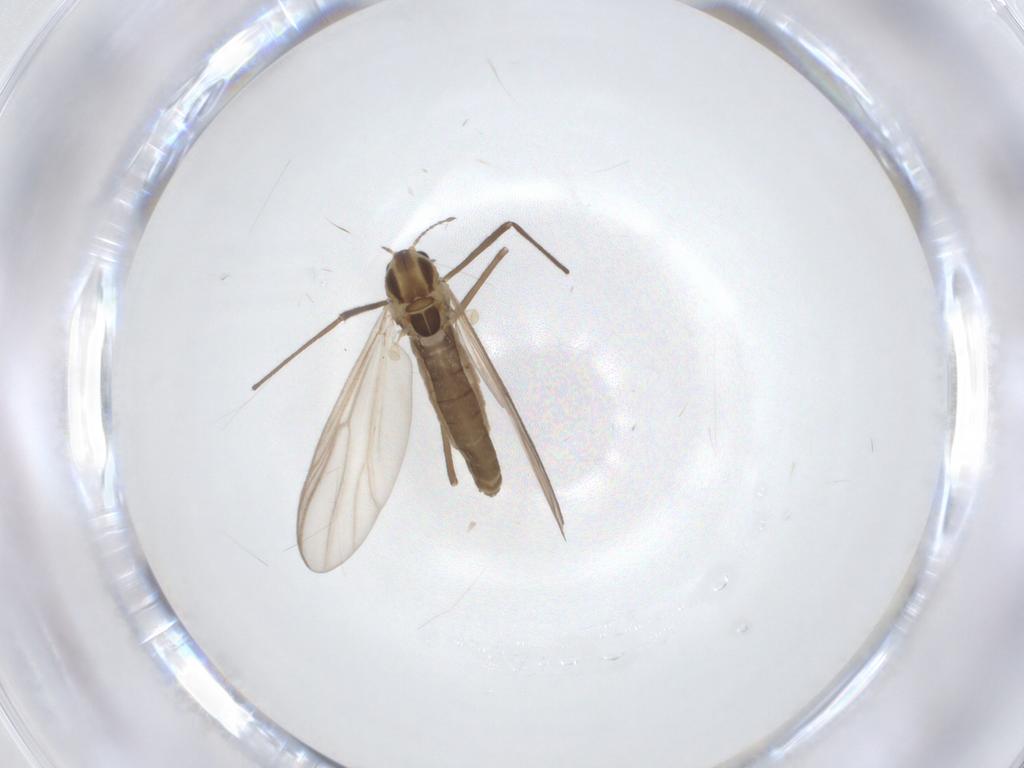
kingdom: Animalia
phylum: Arthropoda
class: Insecta
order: Diptera
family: Chironomidae
